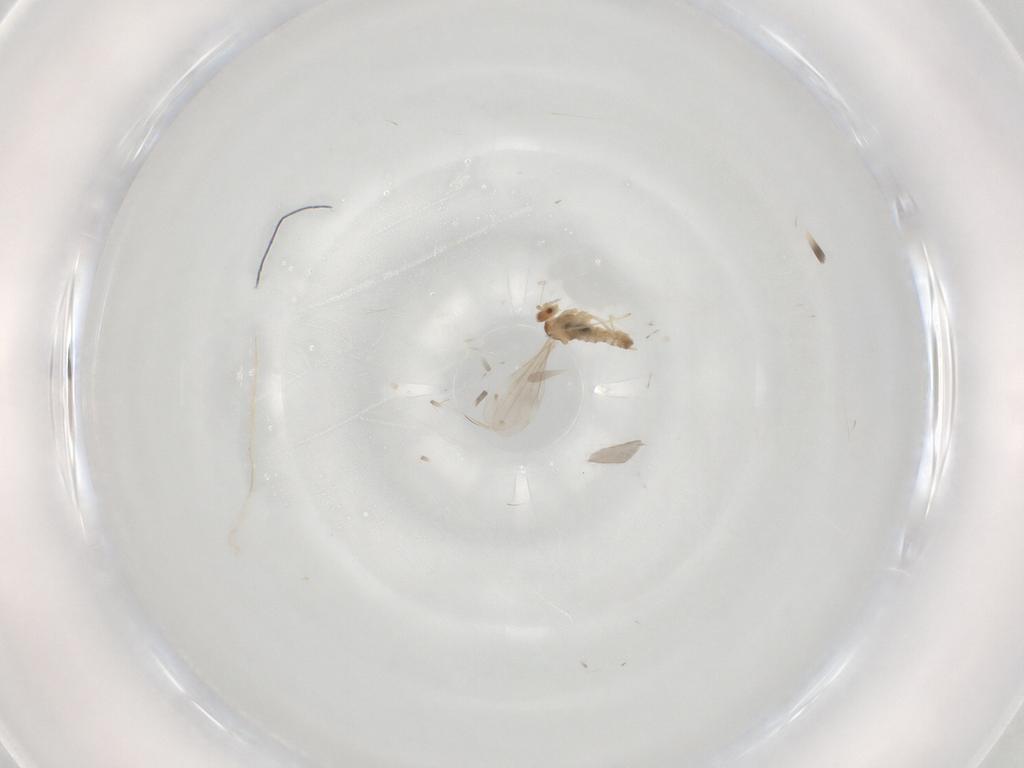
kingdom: Animalia
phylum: Arthropoda
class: Insecta
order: Diptera
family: Cecidomyiidae
